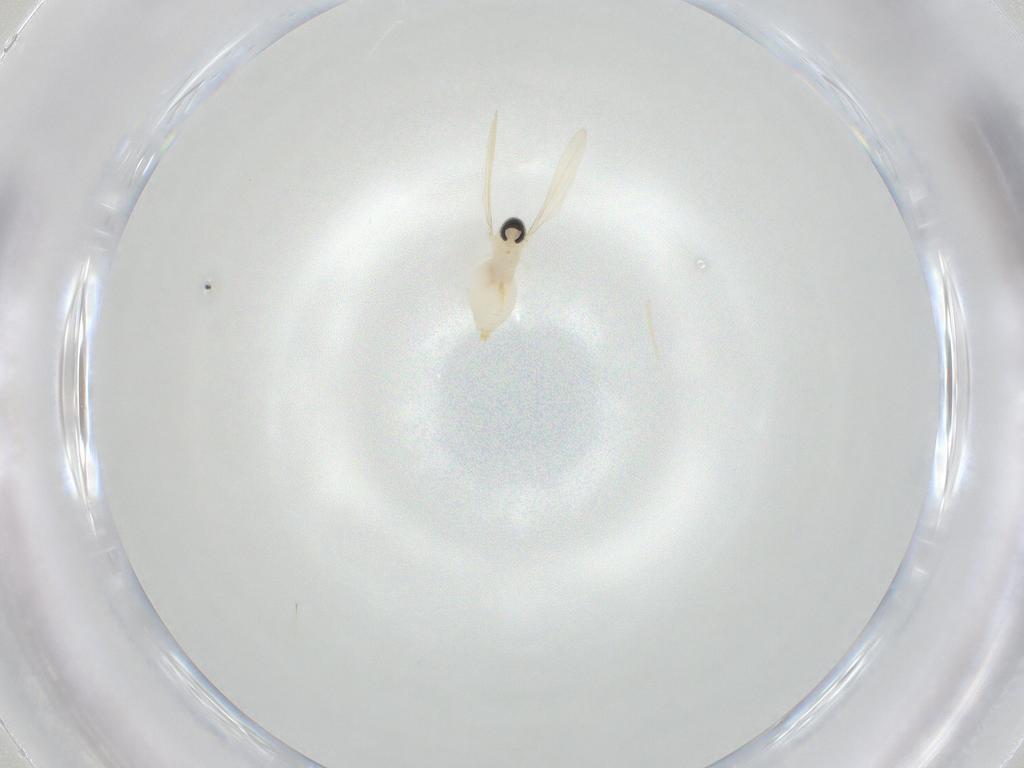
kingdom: Animalia
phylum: Arthropoda
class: Insecta
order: Diptera
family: Cecidomyiidae
